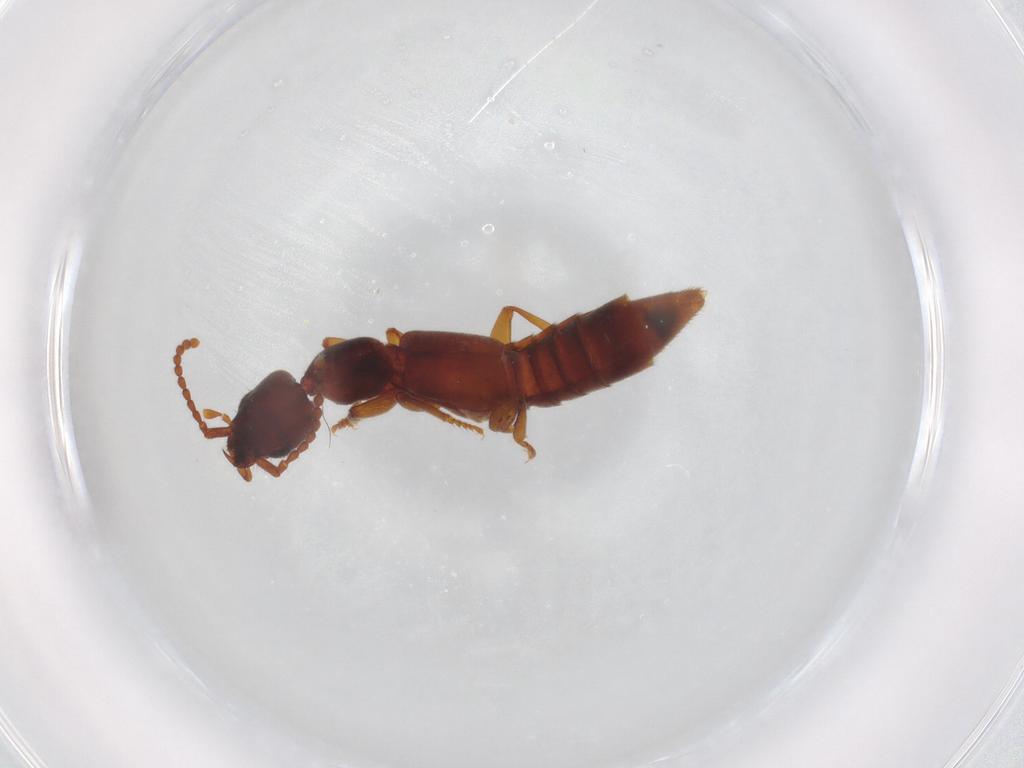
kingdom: Animalia
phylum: Arthropoda
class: Insecta
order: Coleoptera
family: Staphylinidae
